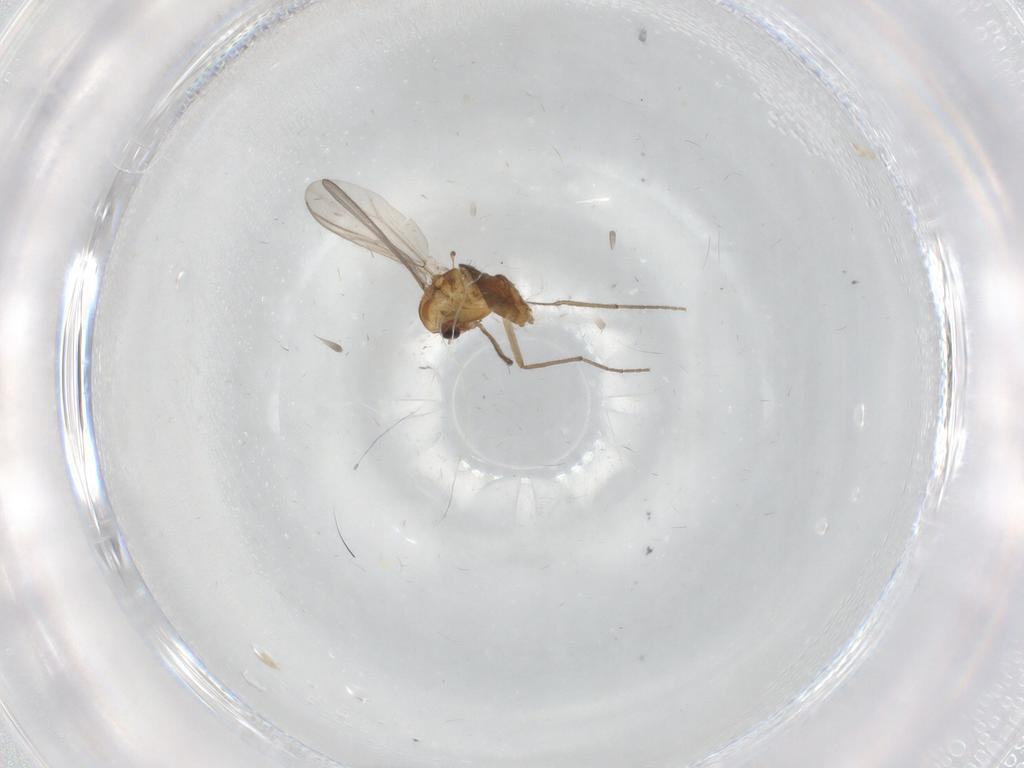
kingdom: Animalia
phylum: Arthropoda
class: Insecta
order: Diptera
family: Chironomidae
